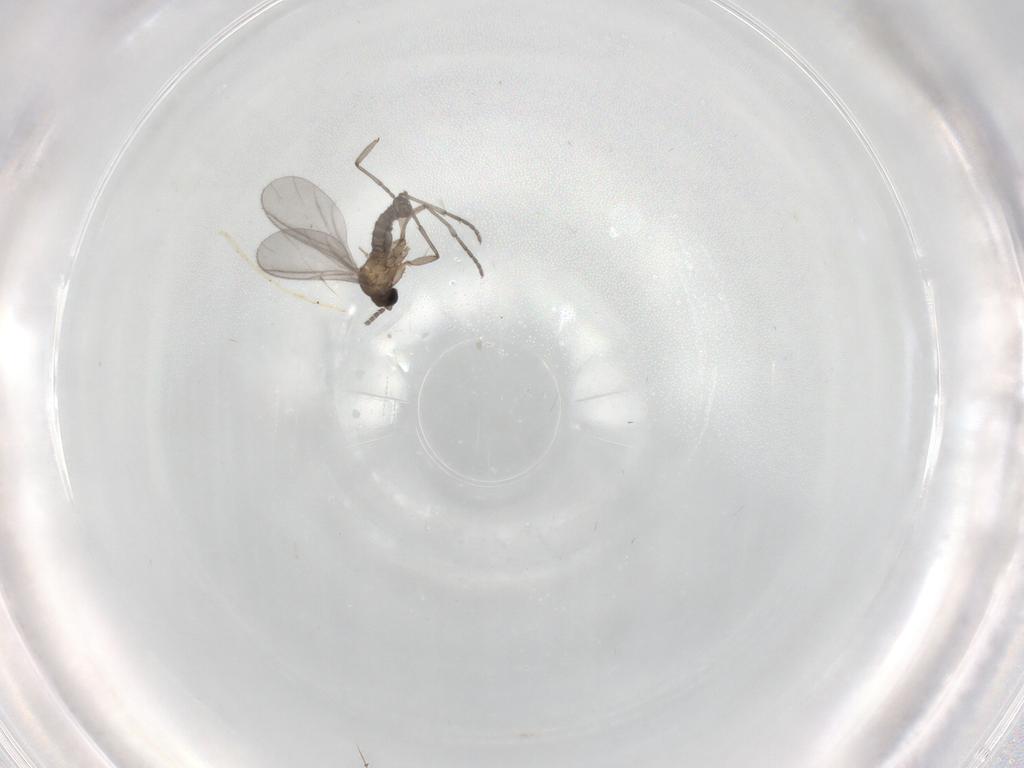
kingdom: Animalia
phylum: Arthropoda
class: Insecta
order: Diptera
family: Sciaridae
